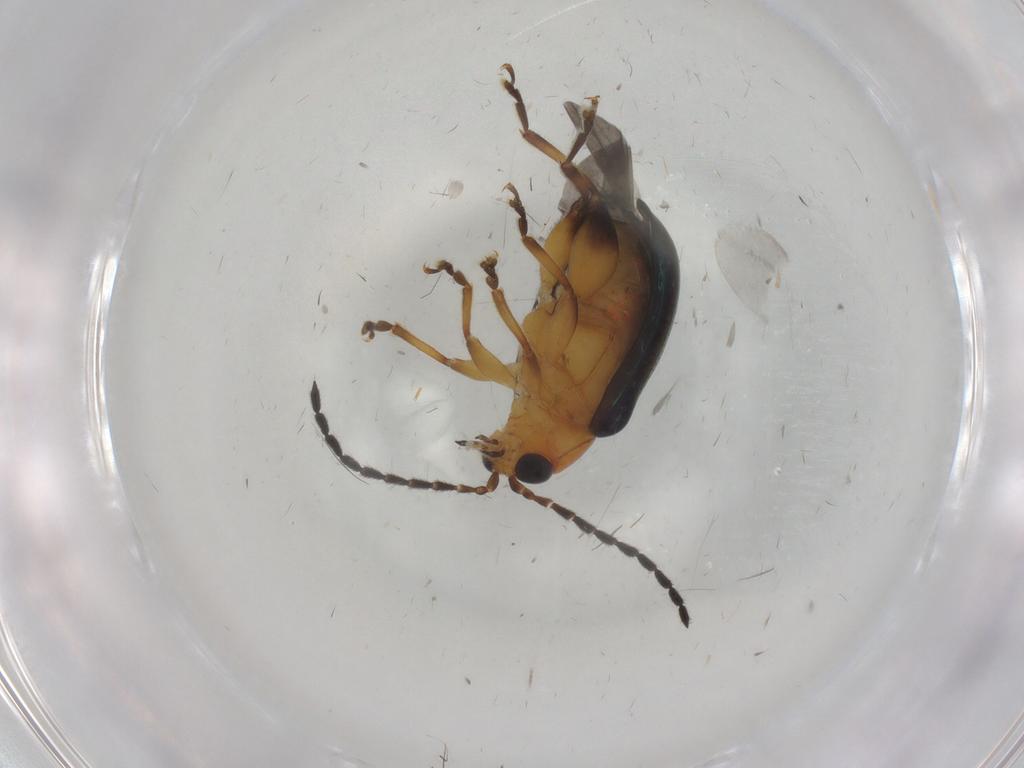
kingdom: Animalia
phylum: Arthropoda
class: Insecta
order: Coleoptera
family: Chrysomelidae
